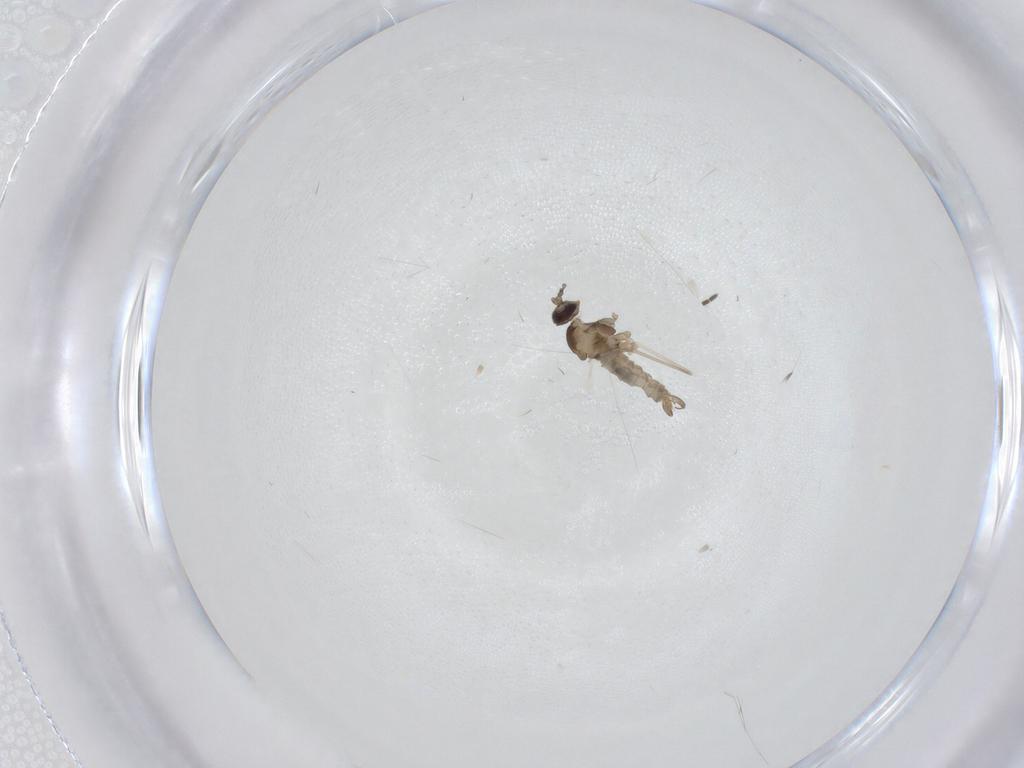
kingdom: Animalia
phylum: Arthropoda
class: Insecta
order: Diptera
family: Cecidomyiidae
